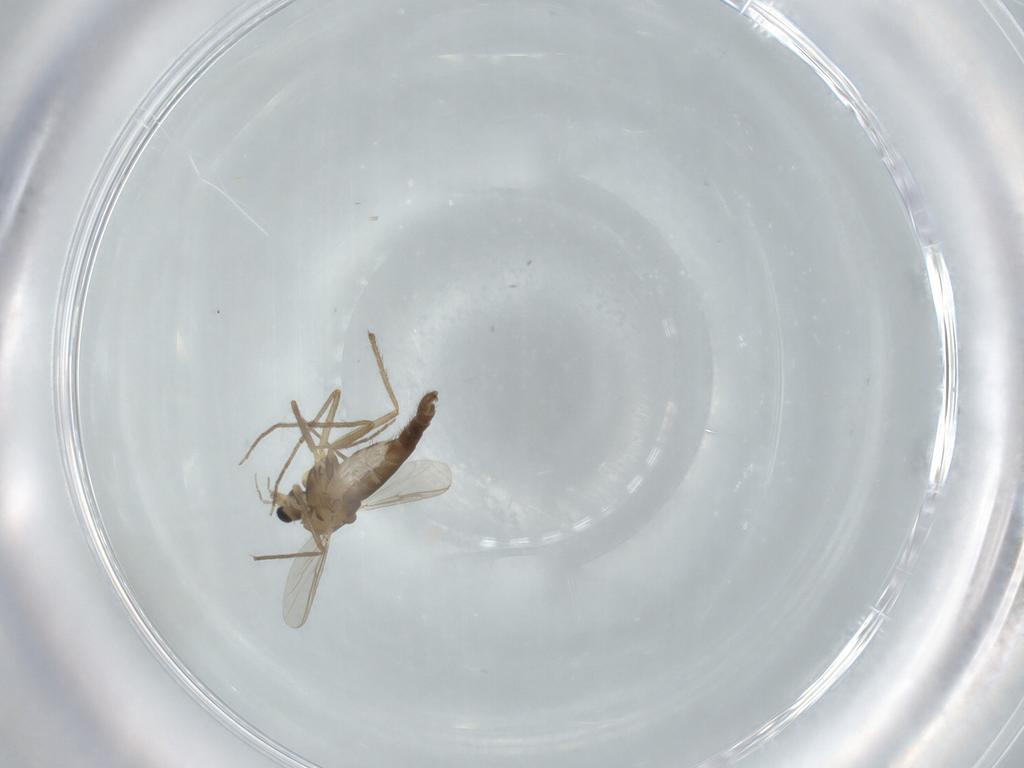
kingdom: Animalia
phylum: Arthropoda
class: Insecta
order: Diptera
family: Chironomidae
